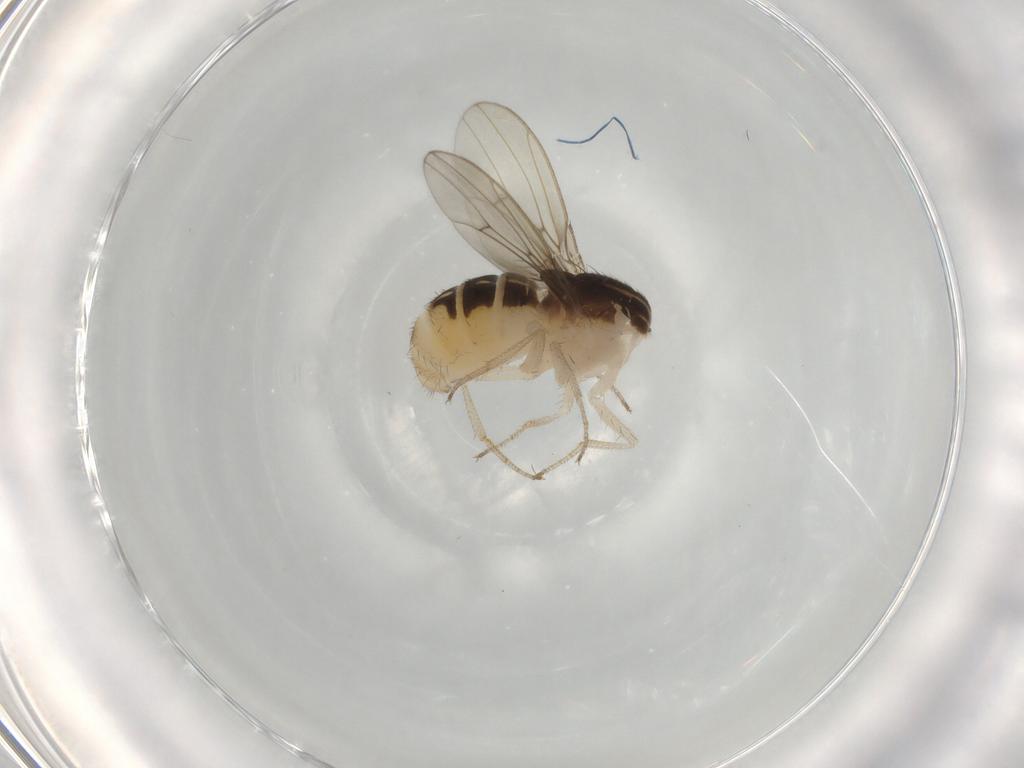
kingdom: Animalia
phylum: Arthropoda
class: Insecta
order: Diptera
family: Drosophilidae
